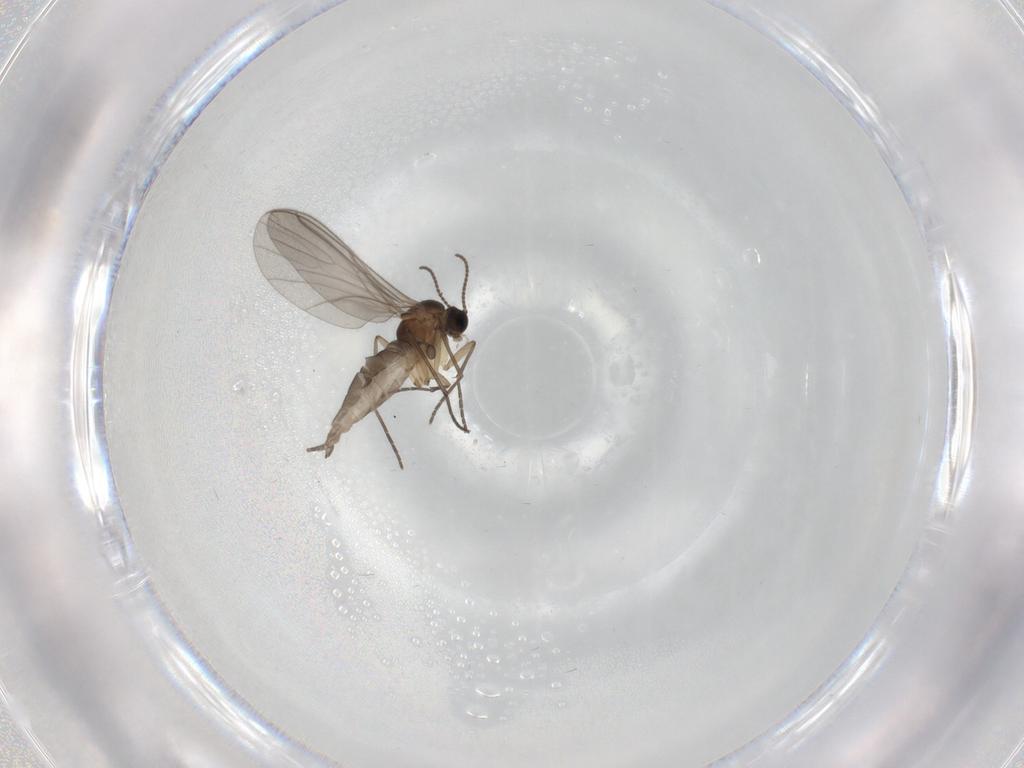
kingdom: Animalia
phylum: Arthropoda
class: Insecta
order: Diptera
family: Sciaridae
